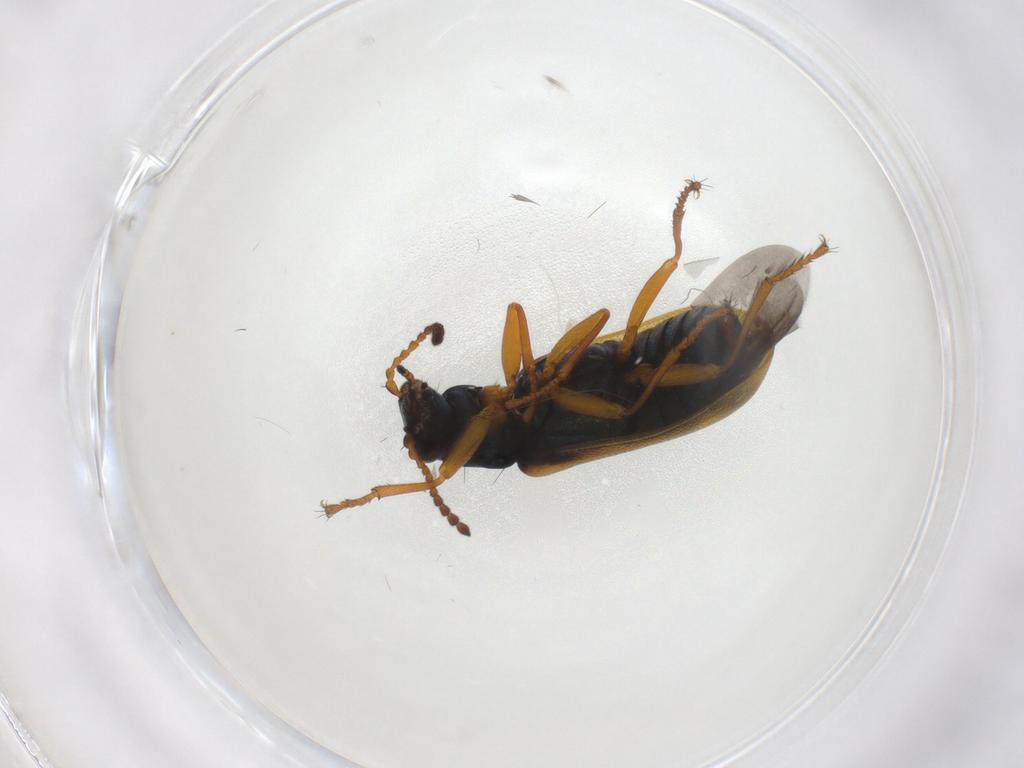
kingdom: Animalia
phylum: Arthropoda
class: Insecta
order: Coleoptera
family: Melyridae
